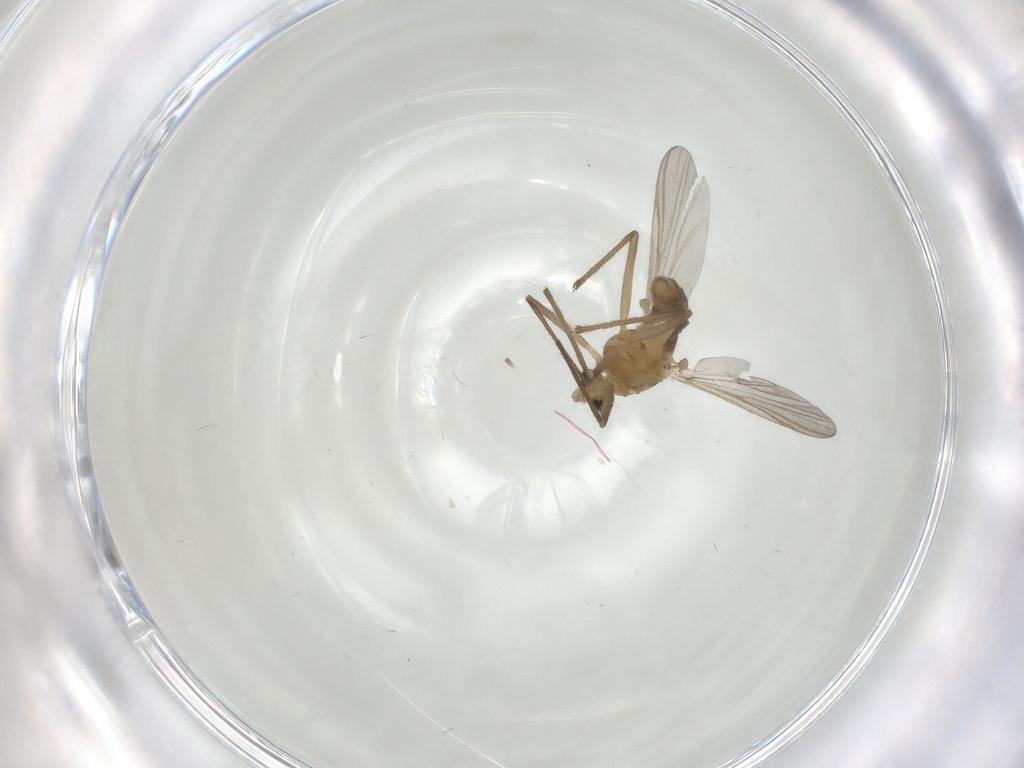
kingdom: Animalia
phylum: Arthropoda
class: Insecta
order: Diptera
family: Chironomidae
